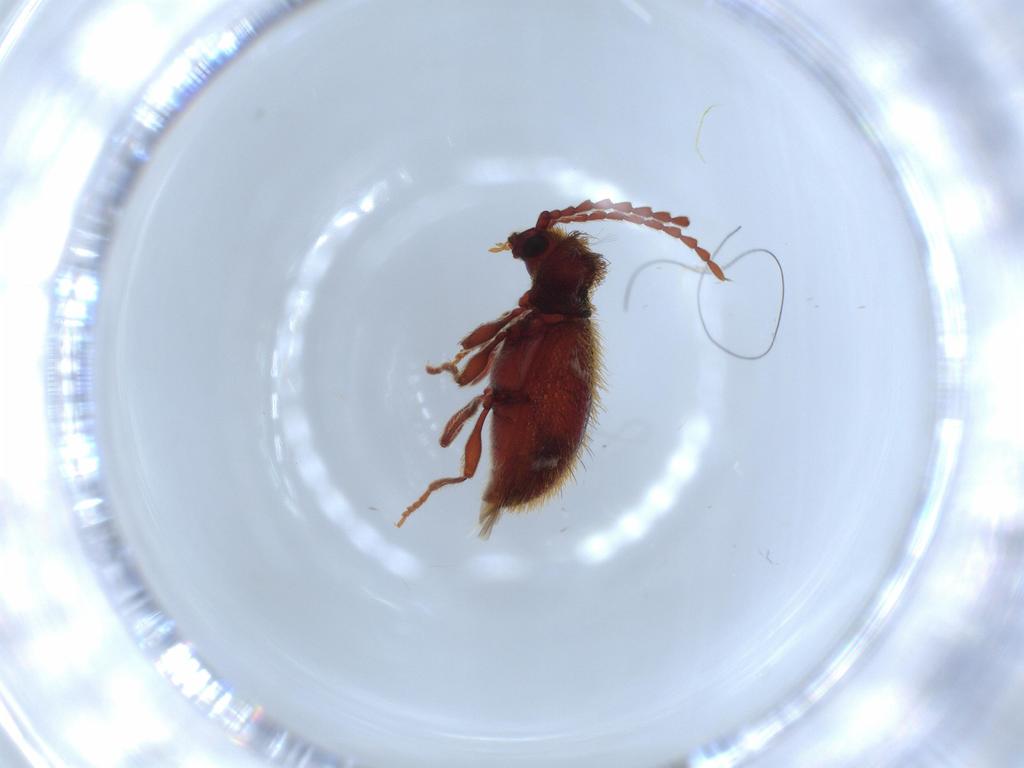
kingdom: Animalia
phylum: Arthropoda
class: Insecta
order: Coleoptera
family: Ptinidae
